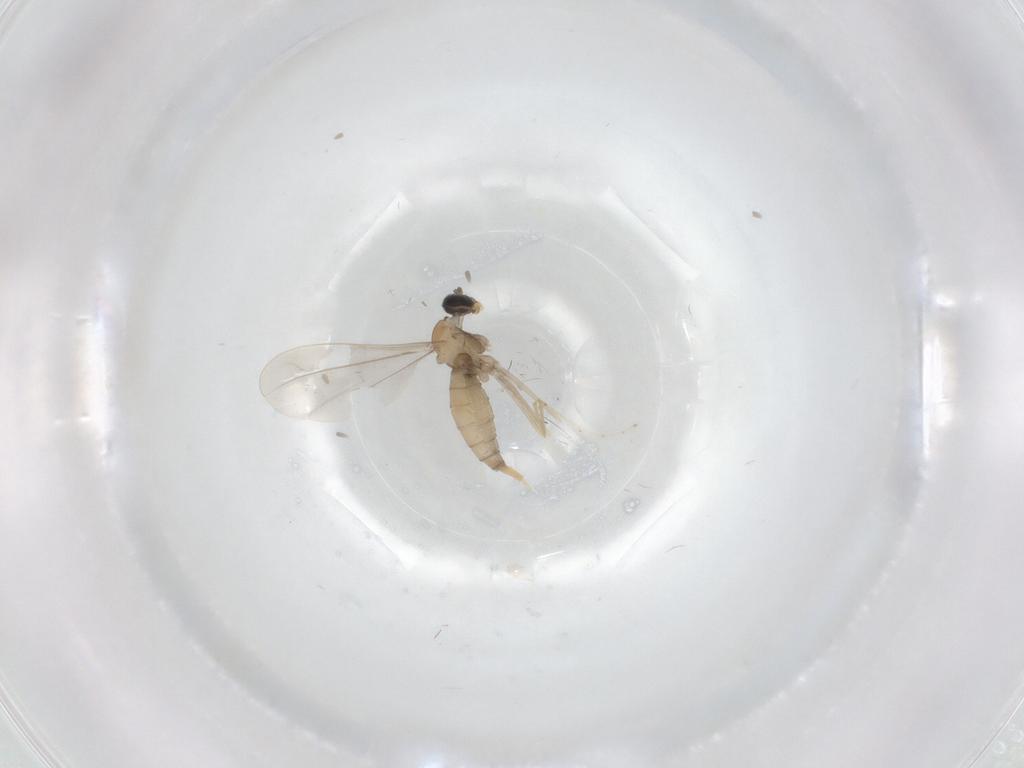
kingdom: Animalia
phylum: Arthropoda
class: Insecta
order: Diptera
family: Cecidomyiidae
